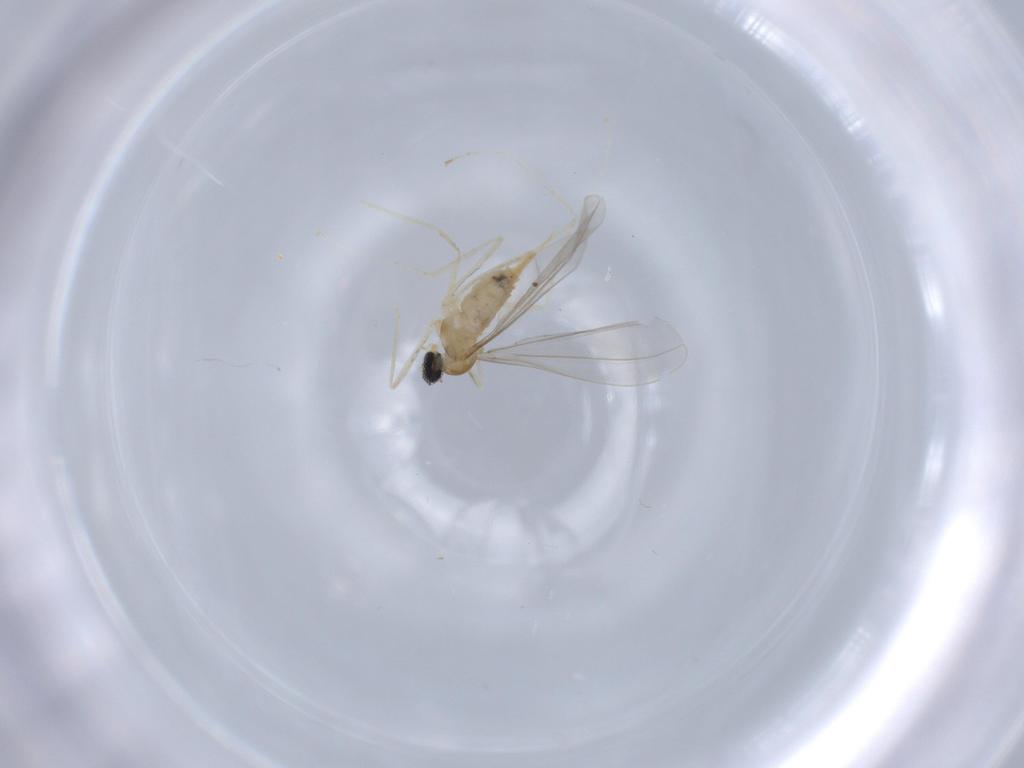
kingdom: Animalia
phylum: Arthropoda
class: Insecta
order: Diptera
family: Cecidomyiidae
